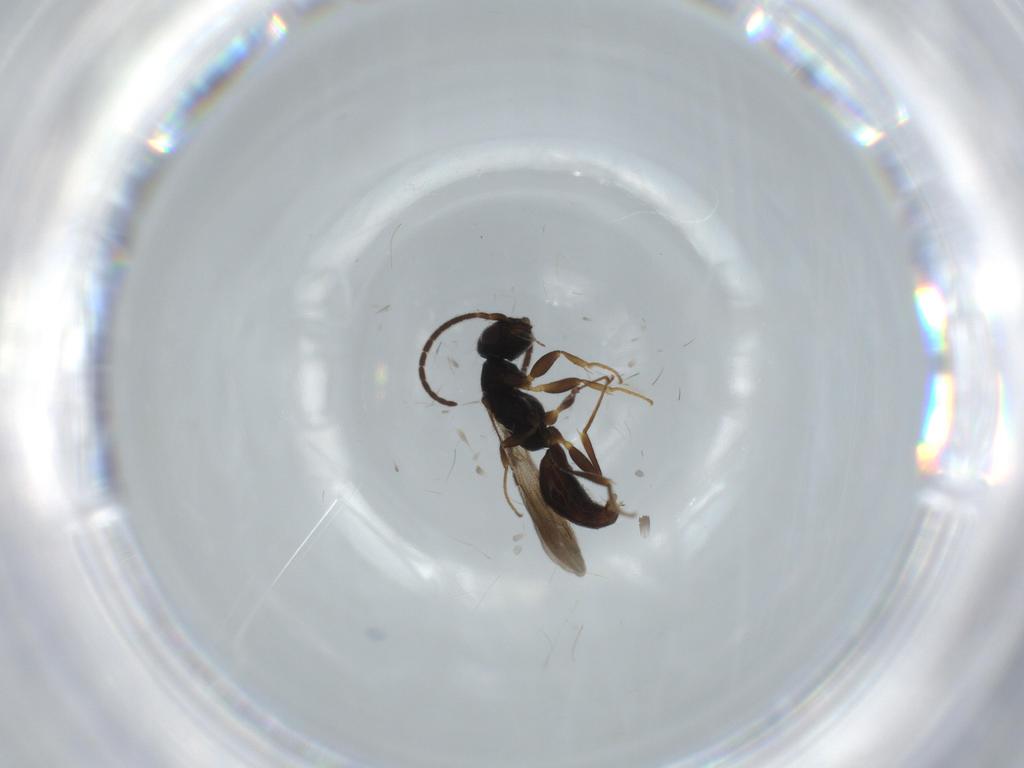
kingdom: Animalia
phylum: Arthropoda
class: Insecta
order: Hymenoptera
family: Bethylidae
